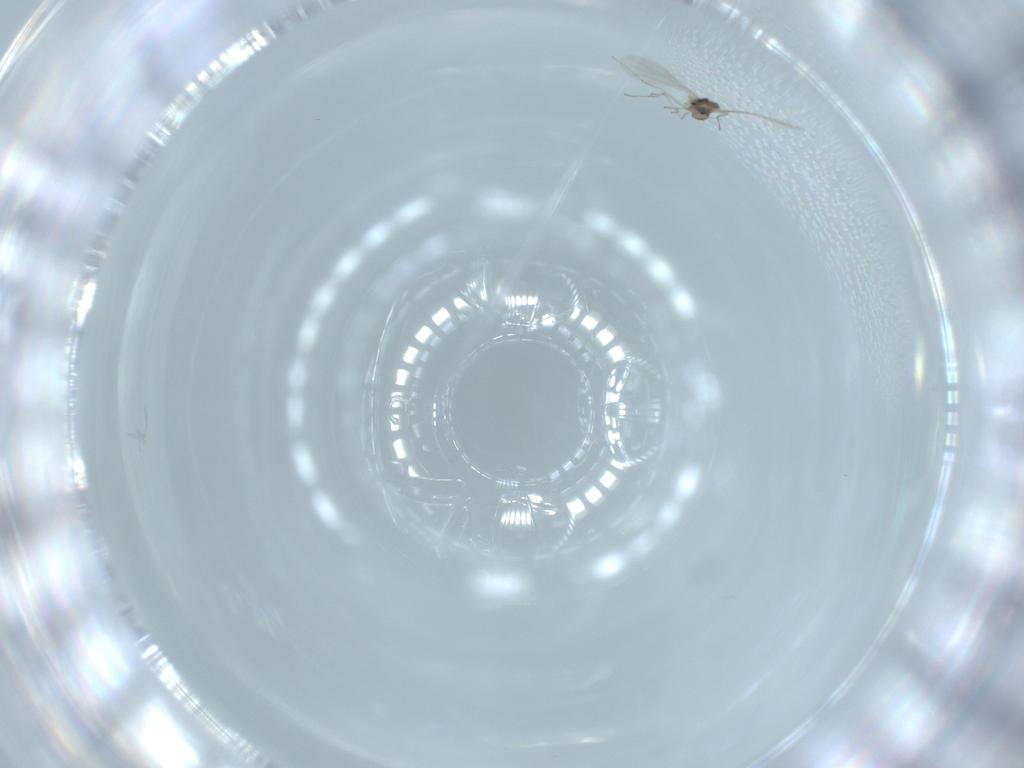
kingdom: Animalia
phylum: Arthropoda
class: Insecta
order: Diptera
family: Cecidomyiidae
